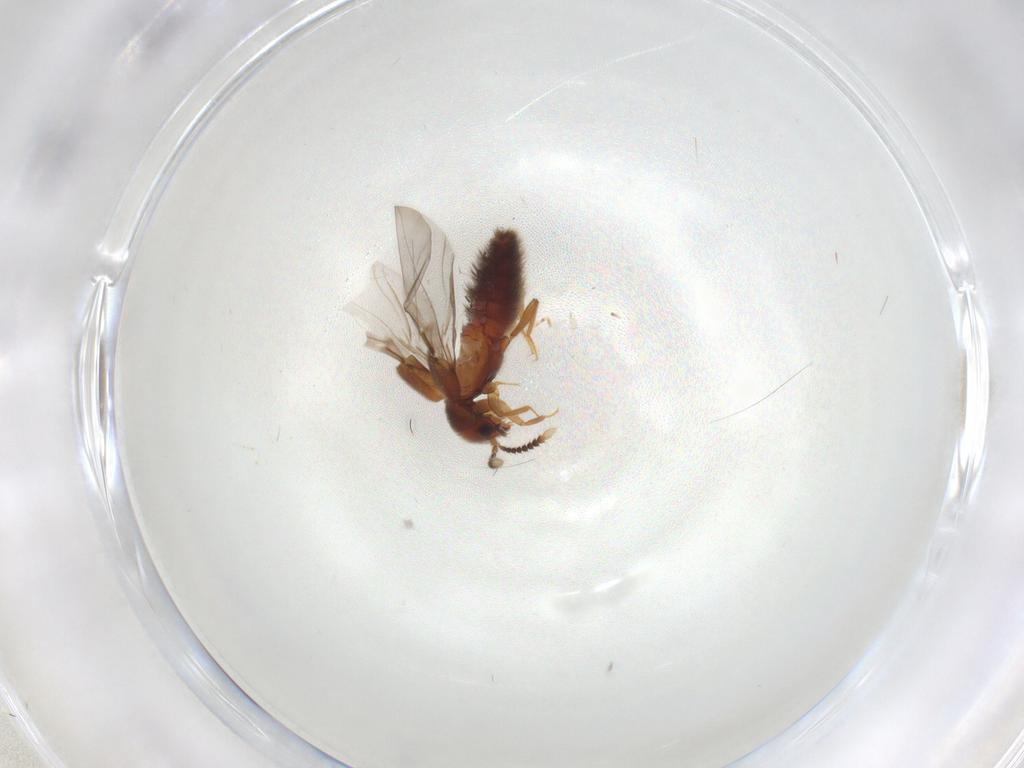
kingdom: Animalia
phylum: Arthropoda
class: Insecta
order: Coleoptera
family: Staphylinidae
